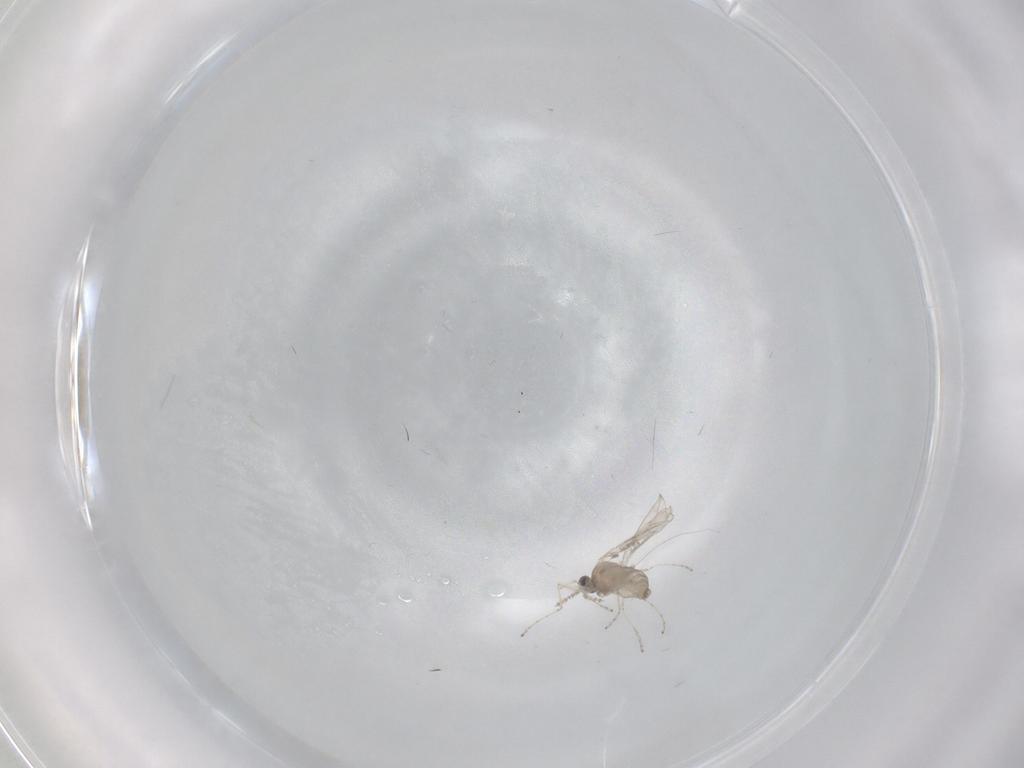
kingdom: Animalia
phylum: Arthropoda
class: Insecta
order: Diptera
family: Cecidomyiidae
